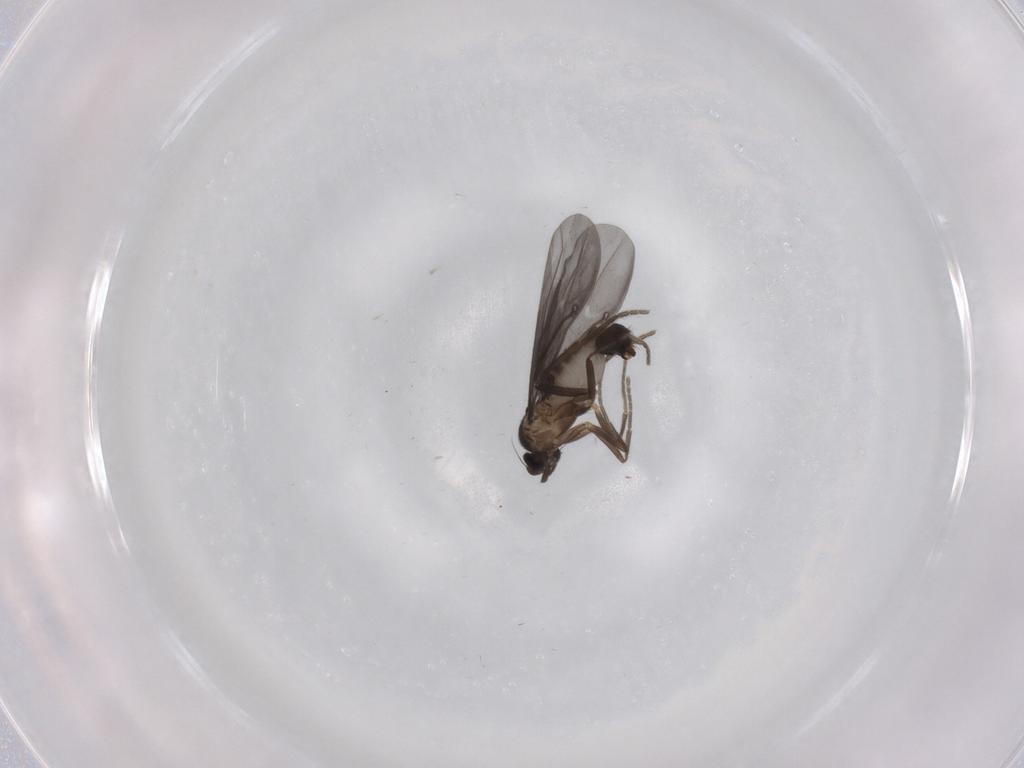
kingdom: Animalia
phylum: Arthropoda
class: Insecta
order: Diptera
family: Phoridae
